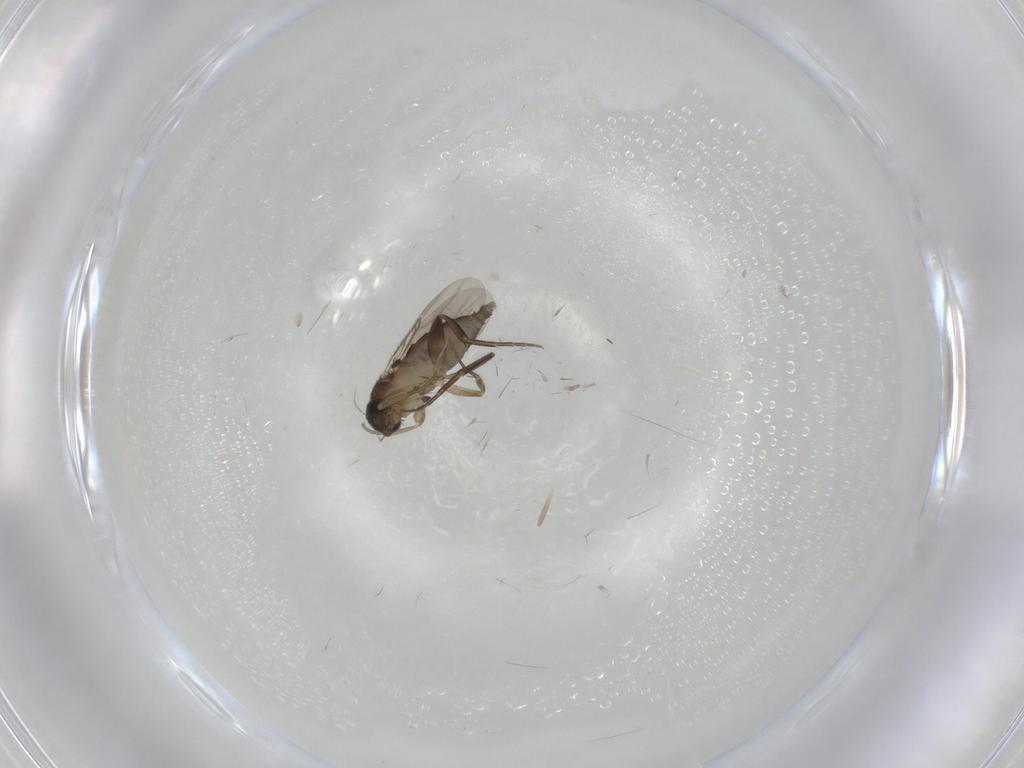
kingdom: Animalia
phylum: Arthropoda
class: Insecta
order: Diptera
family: Phoridae
